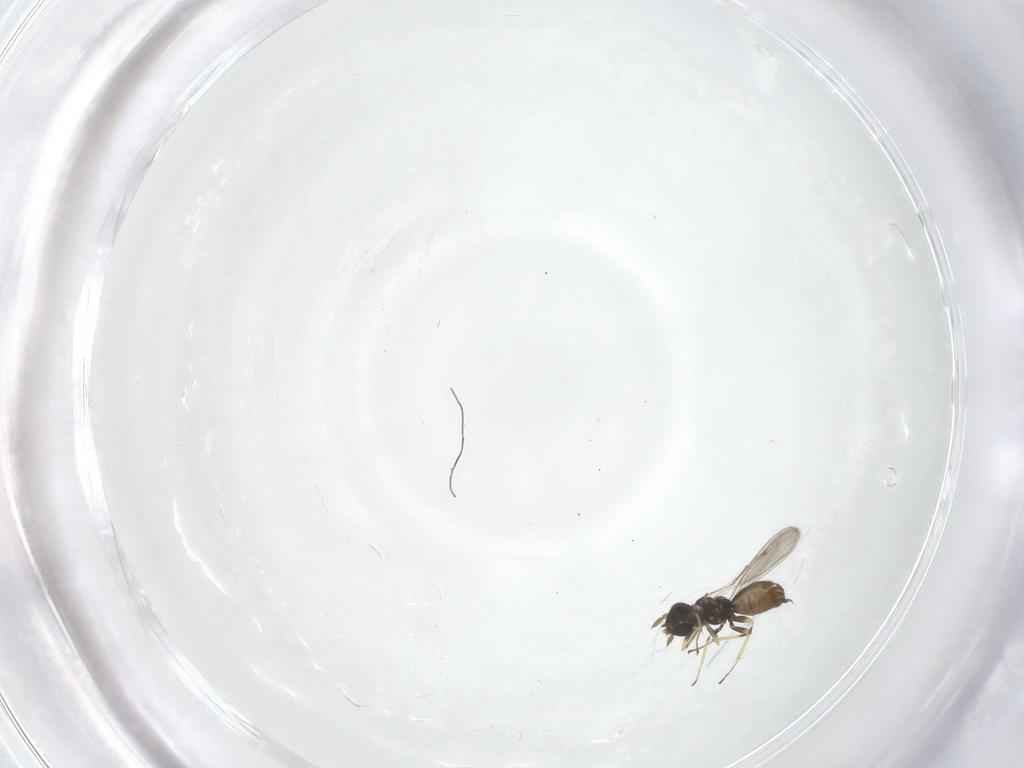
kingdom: Animalia
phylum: Arthropoda
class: Insecta
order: Hymenoptera
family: Eulophidae
